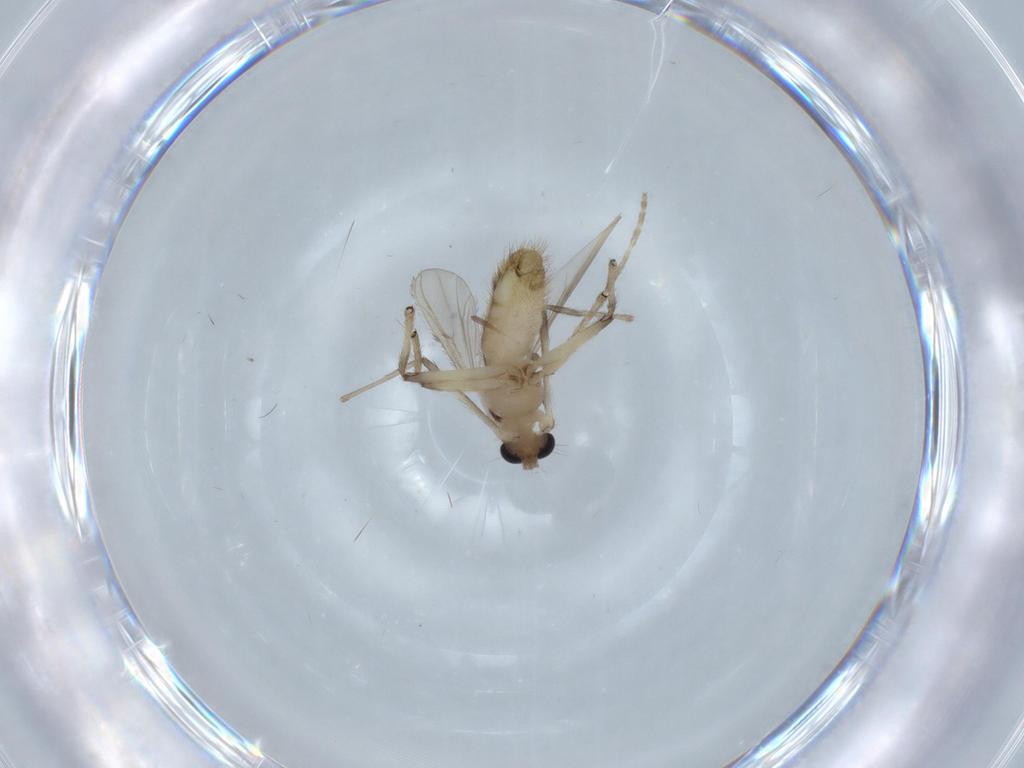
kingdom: Animalia
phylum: Arthropoda
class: Insecta
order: Diptera
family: Chironomidae
